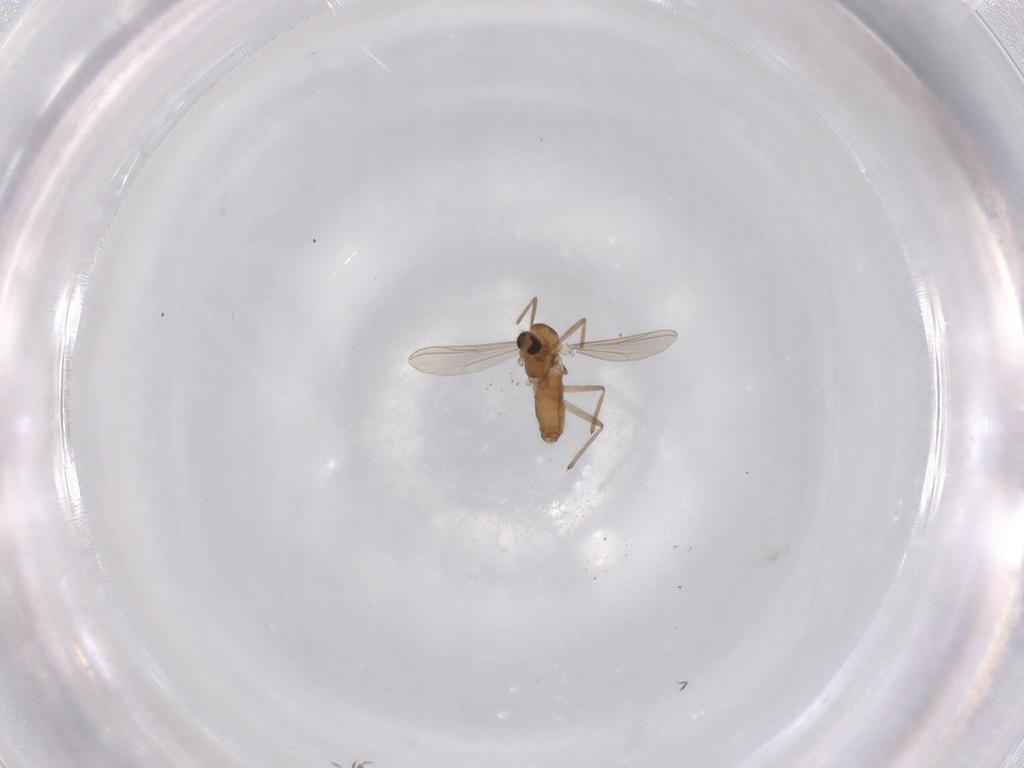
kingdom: Animalia
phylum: Arthropoda
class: Insecta
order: Diptera
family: Chironomidae
